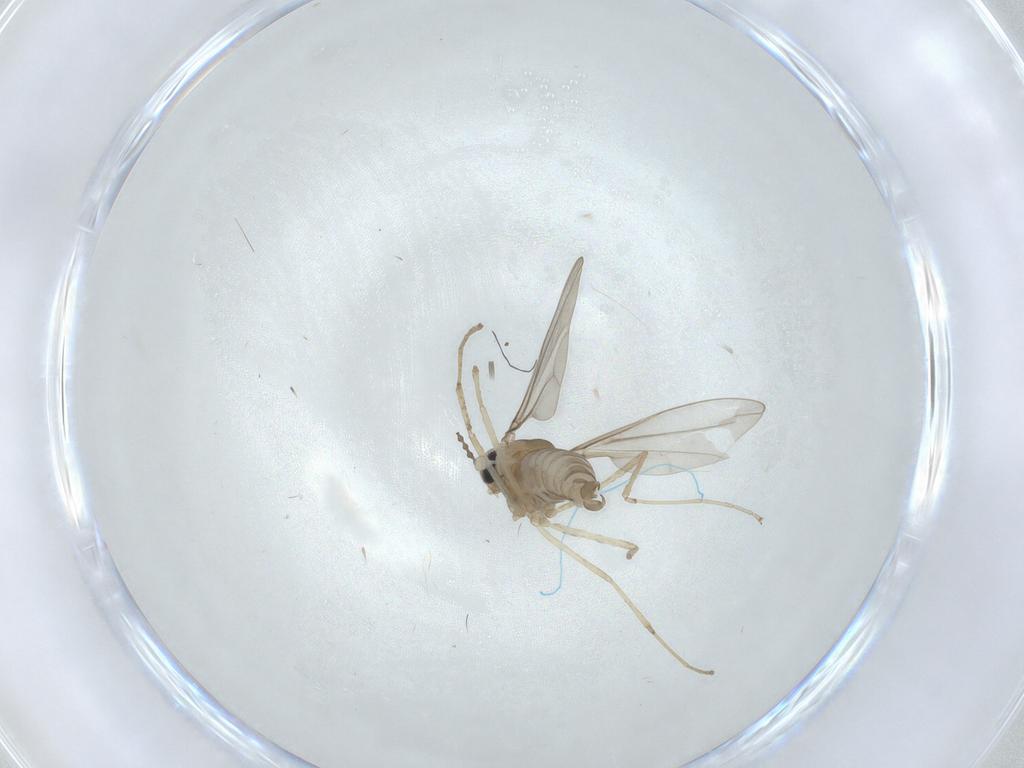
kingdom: Animalia
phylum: Arthropoda
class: Insecta
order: Diptera
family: Cecidomyiidae
